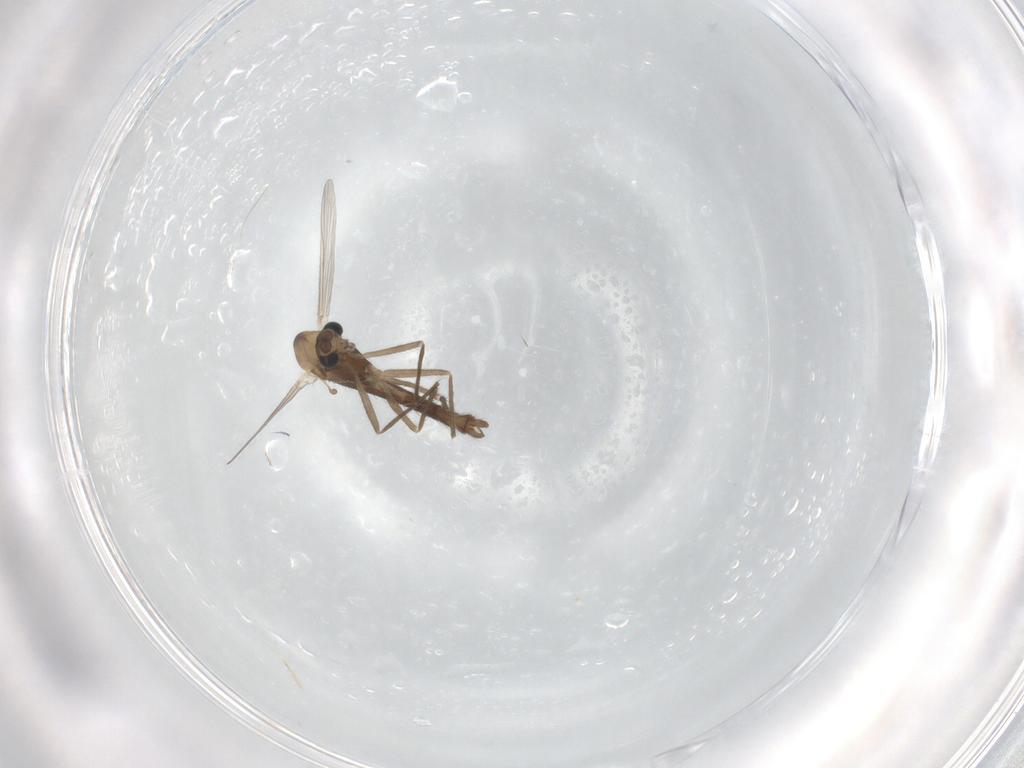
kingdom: Animalia
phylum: Arthropoda
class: Insecta
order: Diptera
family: Chironomidae
